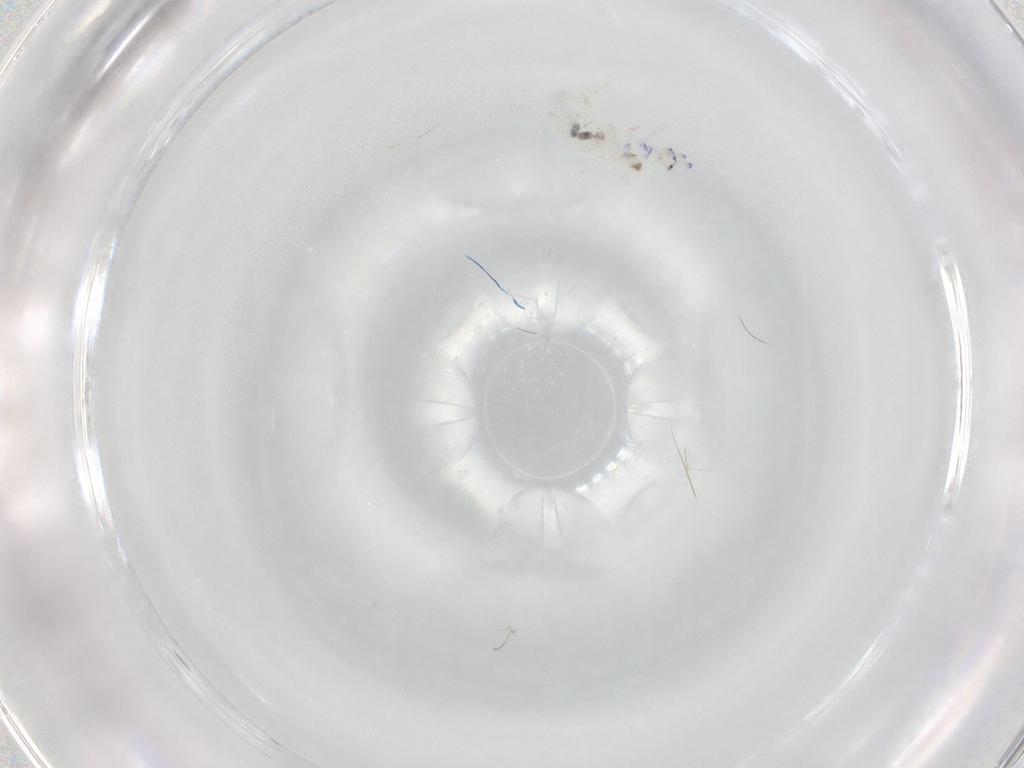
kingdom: Animalia
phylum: Arthropoda
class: Collembola
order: Entomobryomorpha
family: Entomobryidae
